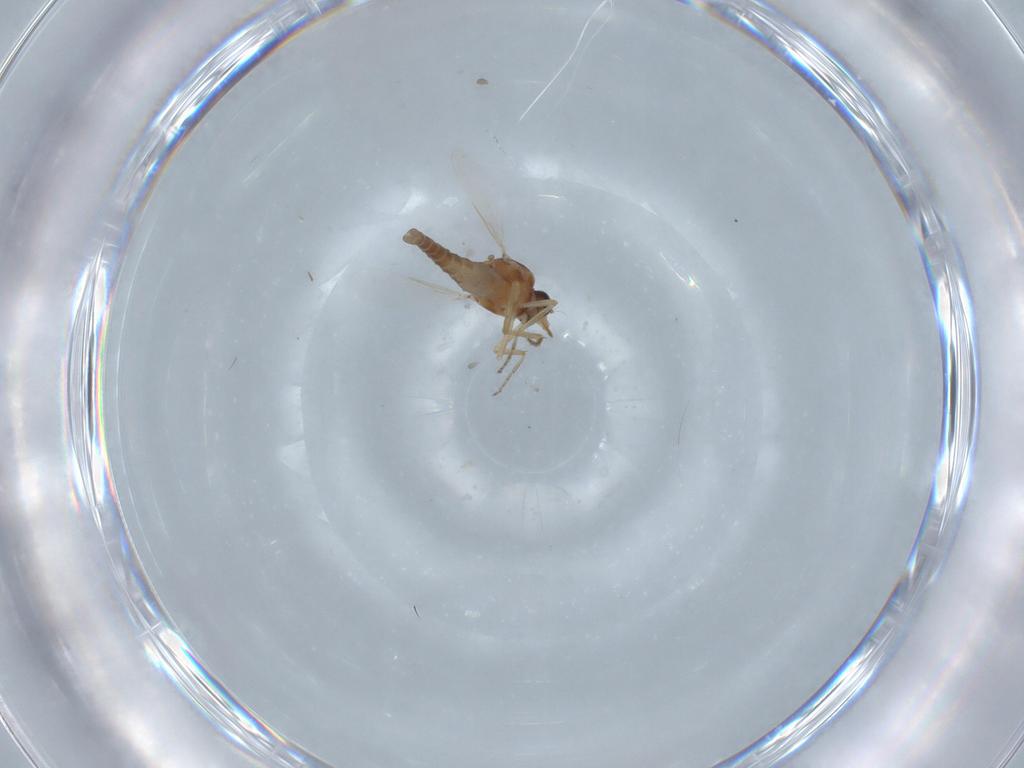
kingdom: Animalia
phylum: Arthropoda
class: Insecta
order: Diptera
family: Ceratopogonidae
